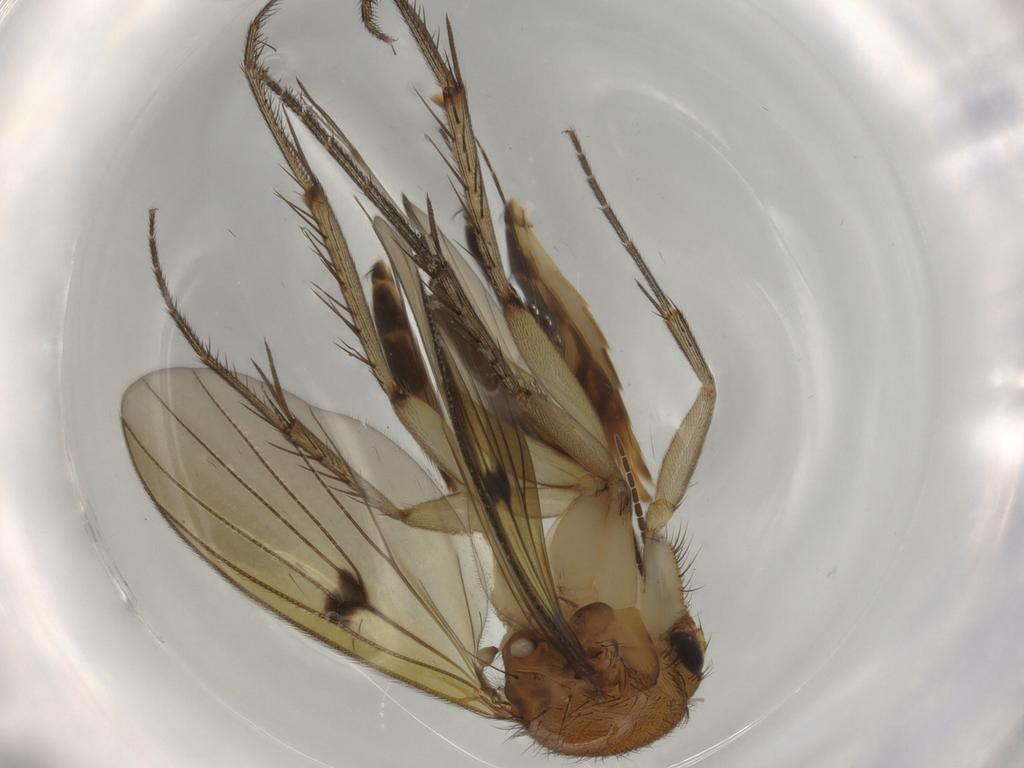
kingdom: Animalia
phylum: Arthropoda
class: Insecta
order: Diptera
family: Mycetophilidae
